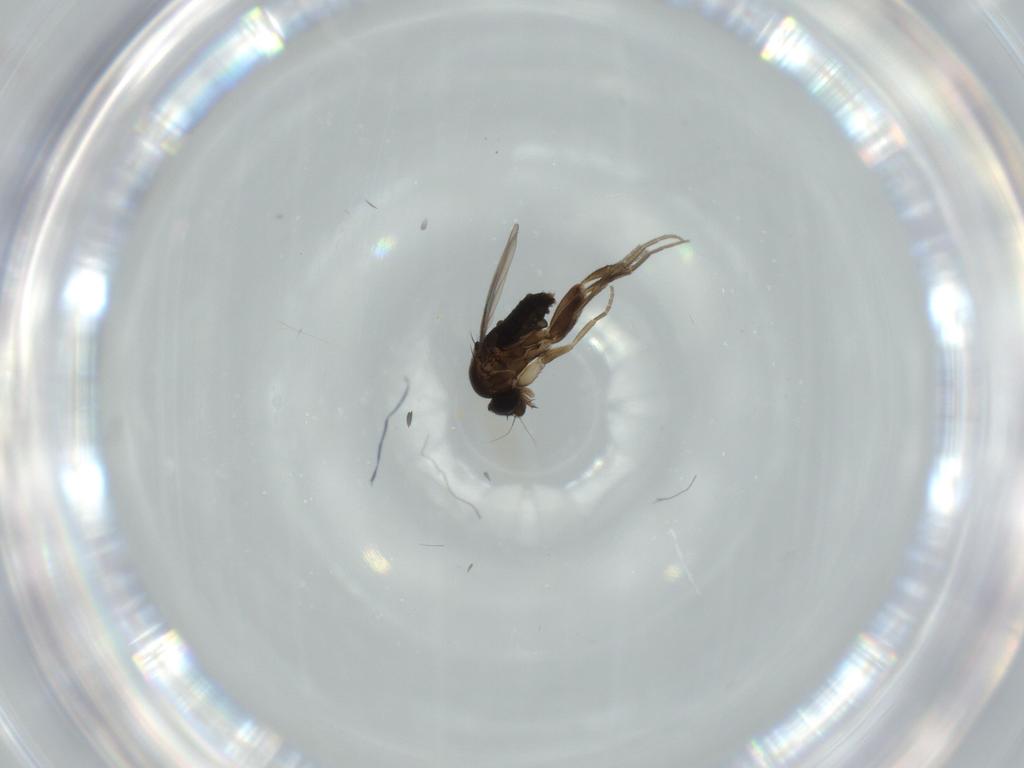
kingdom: Animalia
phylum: Arthropoda
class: Insecta
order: Diptera
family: Phoridae
